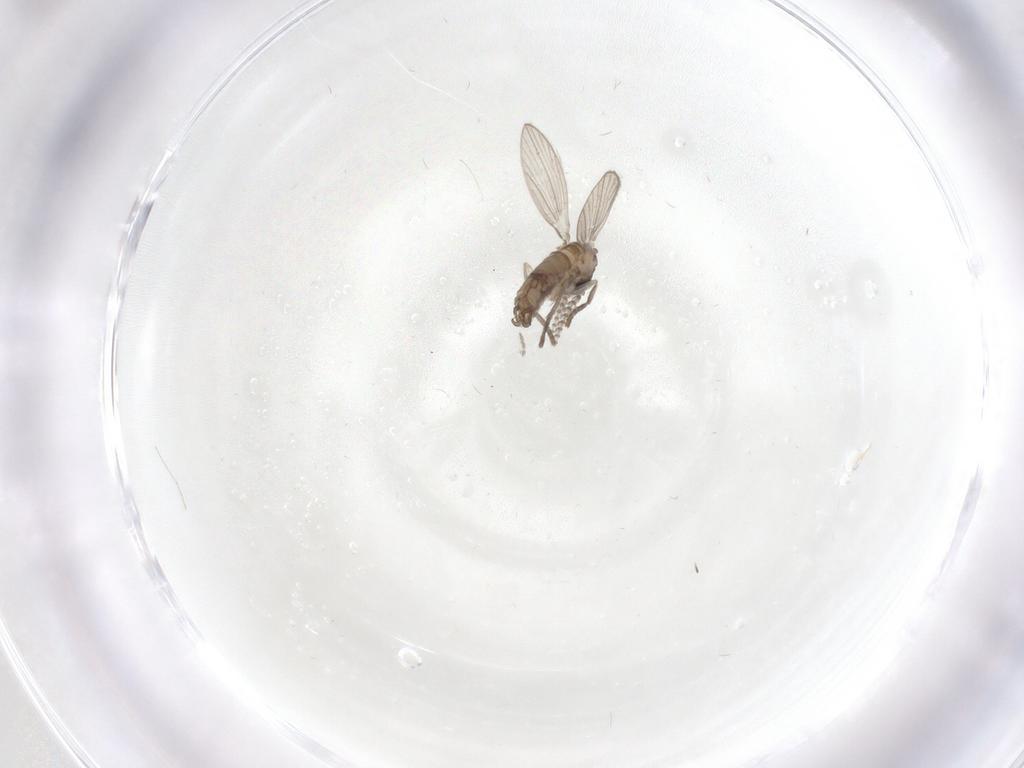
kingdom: Animalia
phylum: Arthropoda
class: Insecta
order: Diptera
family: Psychodidae
